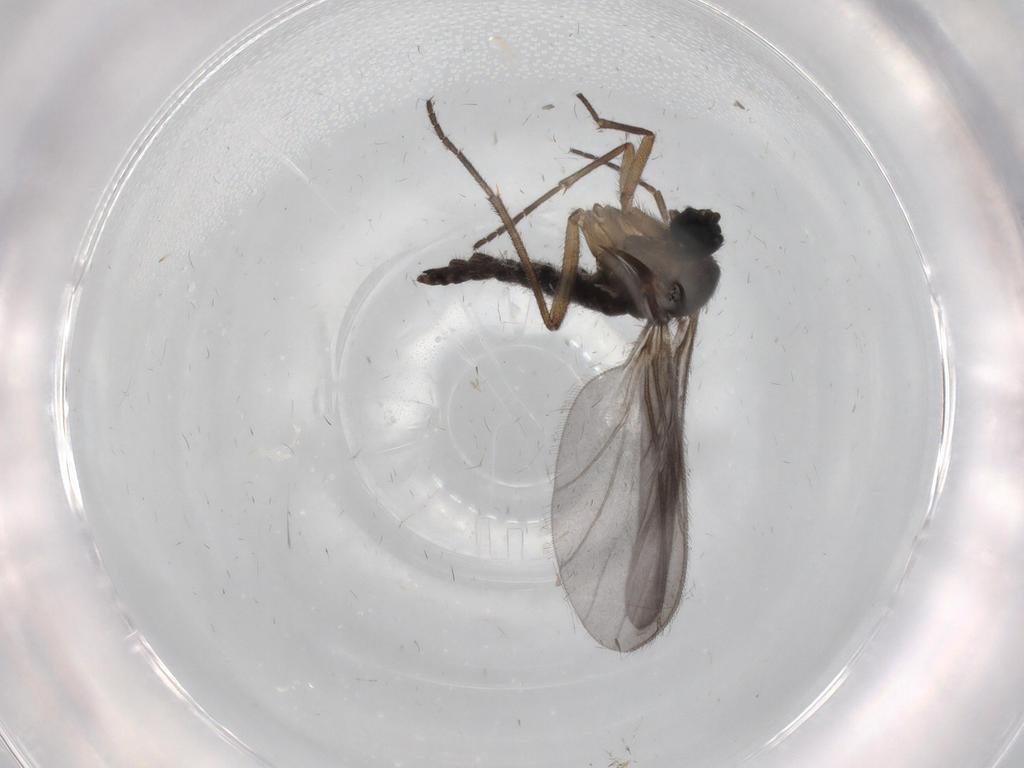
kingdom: Animalia
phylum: Arthropoda
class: Insecta
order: Diptera
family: Sciaridae
